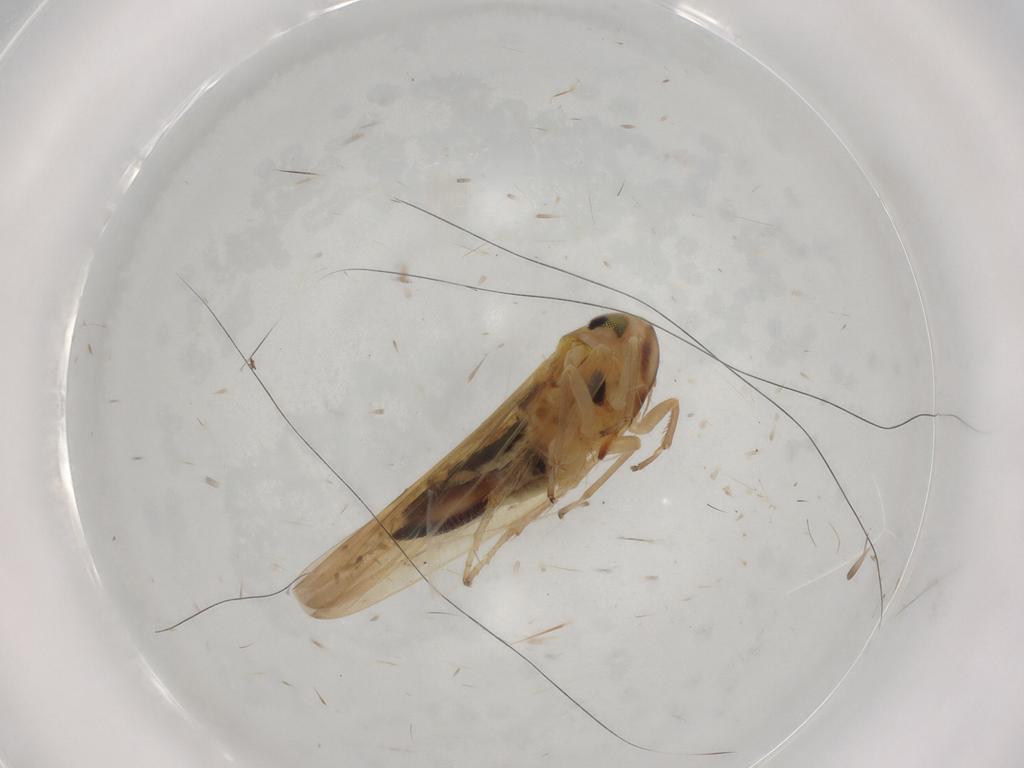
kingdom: Animalia
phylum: Arthropoda
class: Insecta
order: Hemiptera
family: Cicadellidae
